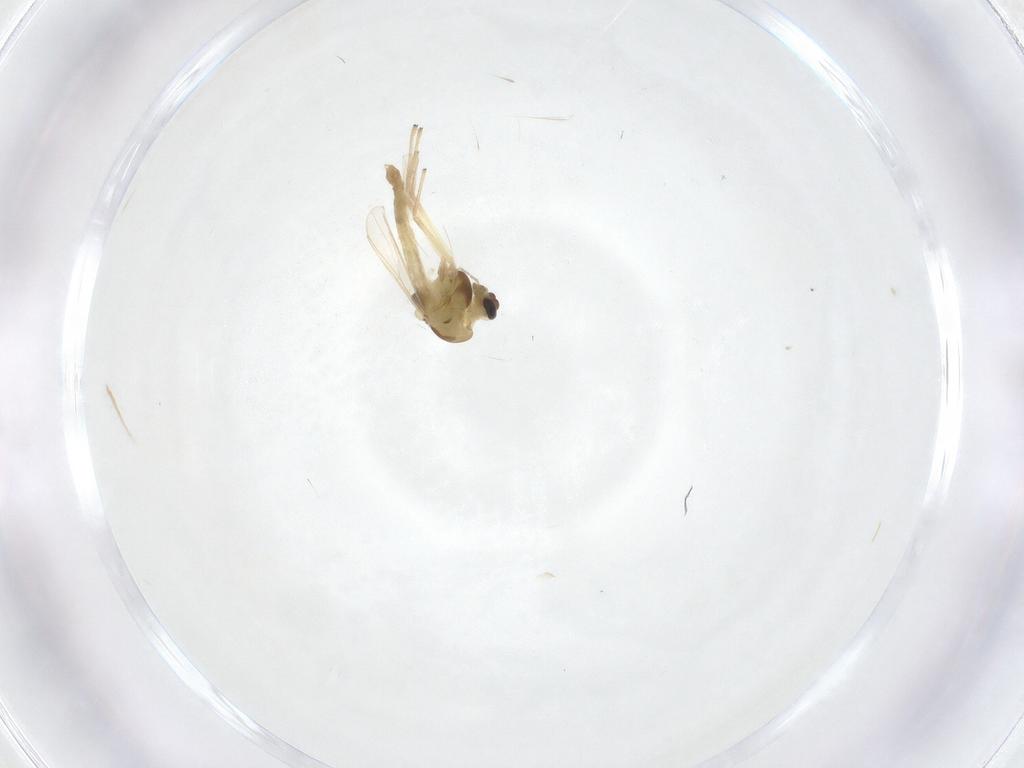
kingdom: Animalia
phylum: Arthropoda
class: Insecta
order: Diptera
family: Chironomidae
